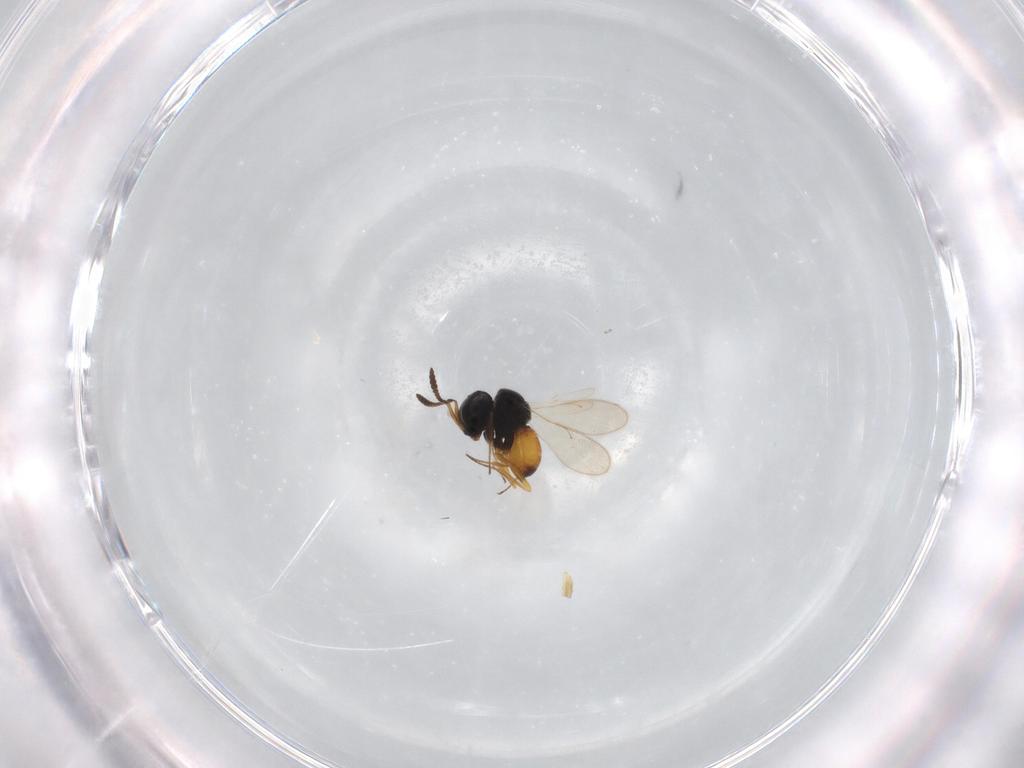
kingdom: Animalia
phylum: Arthropoda
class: Insecta
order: Hymenoptera
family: Scelionidae
